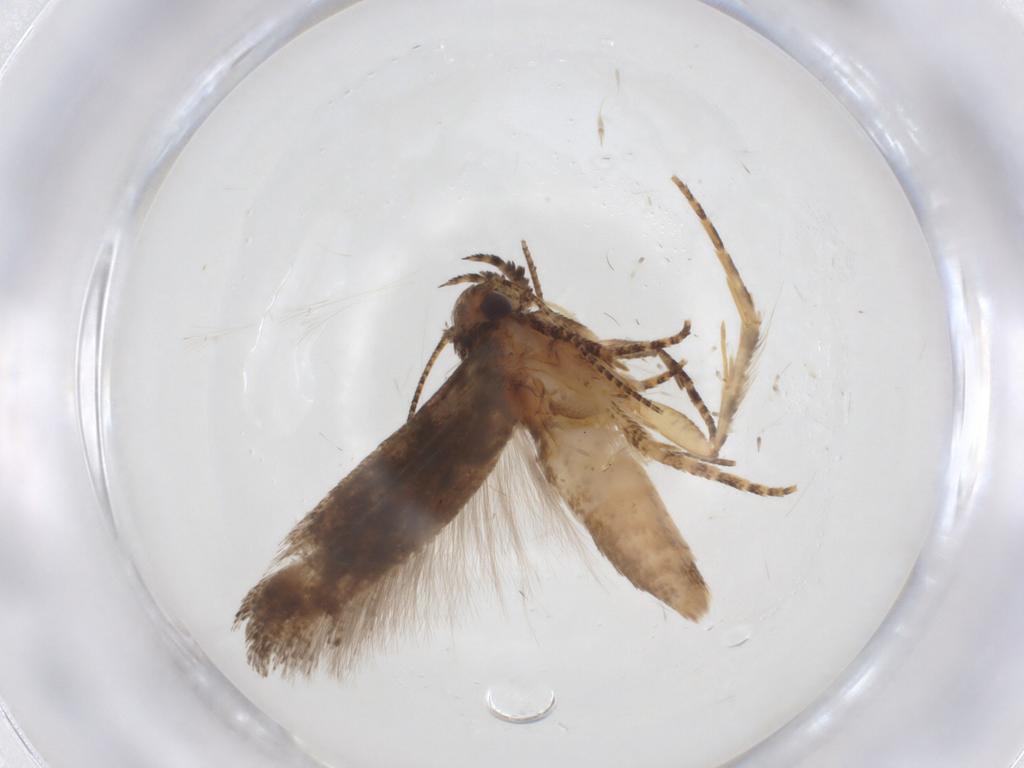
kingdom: Animalia
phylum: Arthropoda
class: Insecta
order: Lepidoptera
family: Gelechiidae
